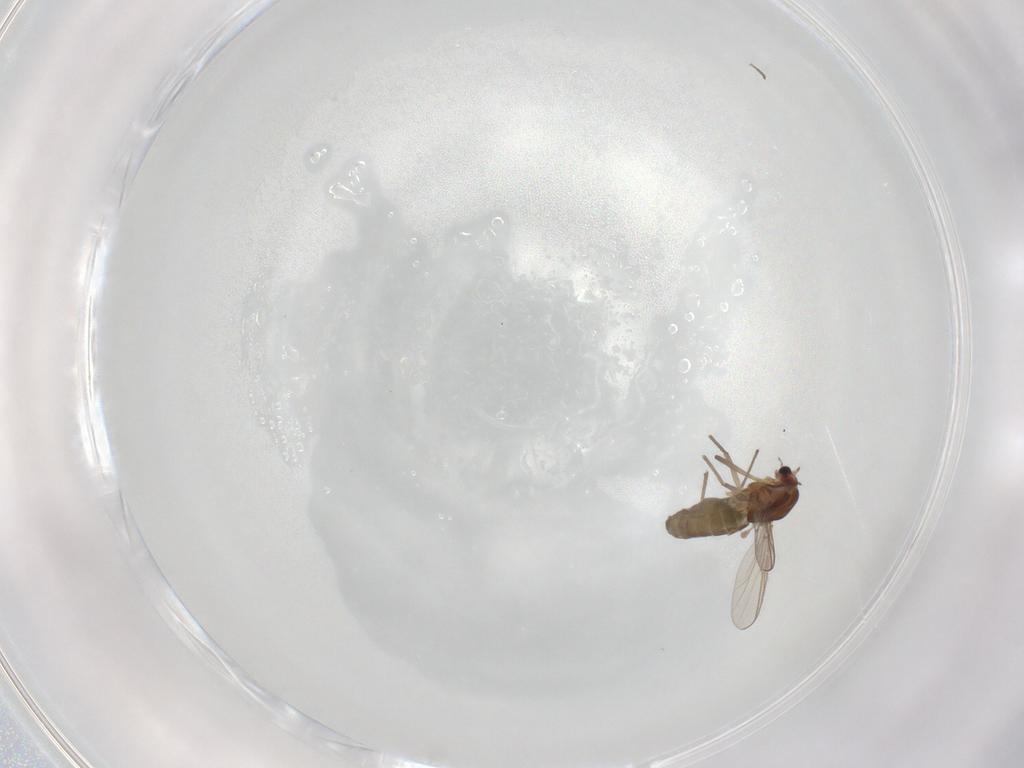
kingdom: Animalia
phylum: Arthropoda
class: Insecta
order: Diptera
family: Chironomidae
